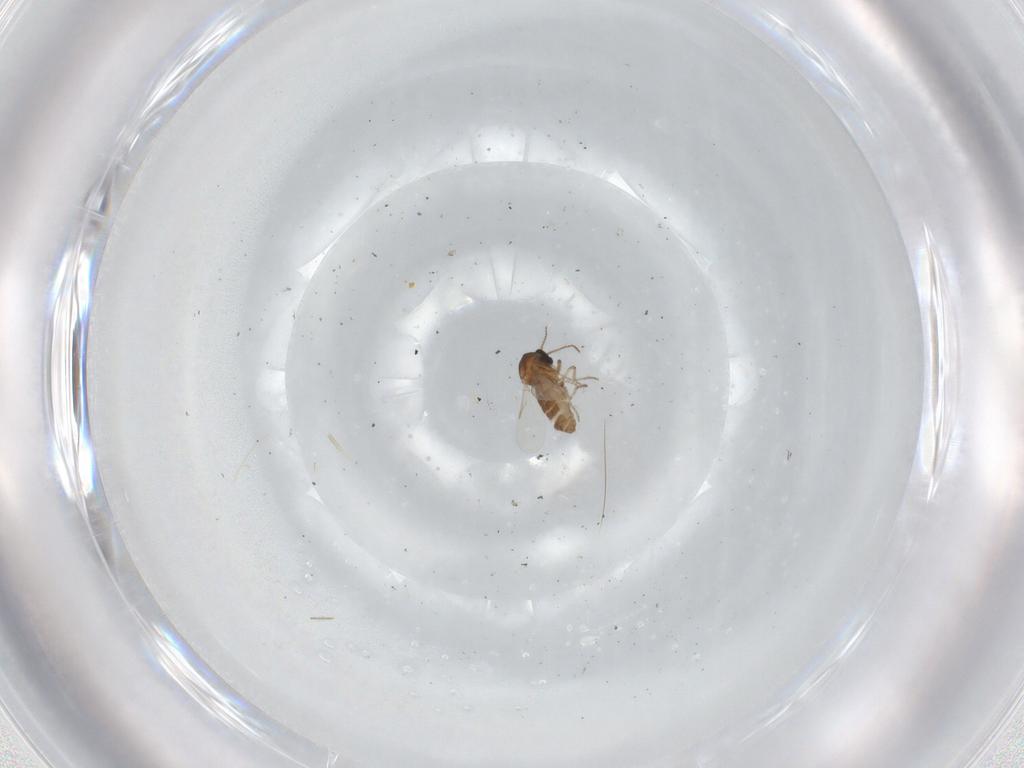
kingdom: Animalia
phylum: Arthropoda
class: Insecta
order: Diptera
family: Ceratopogonidae
